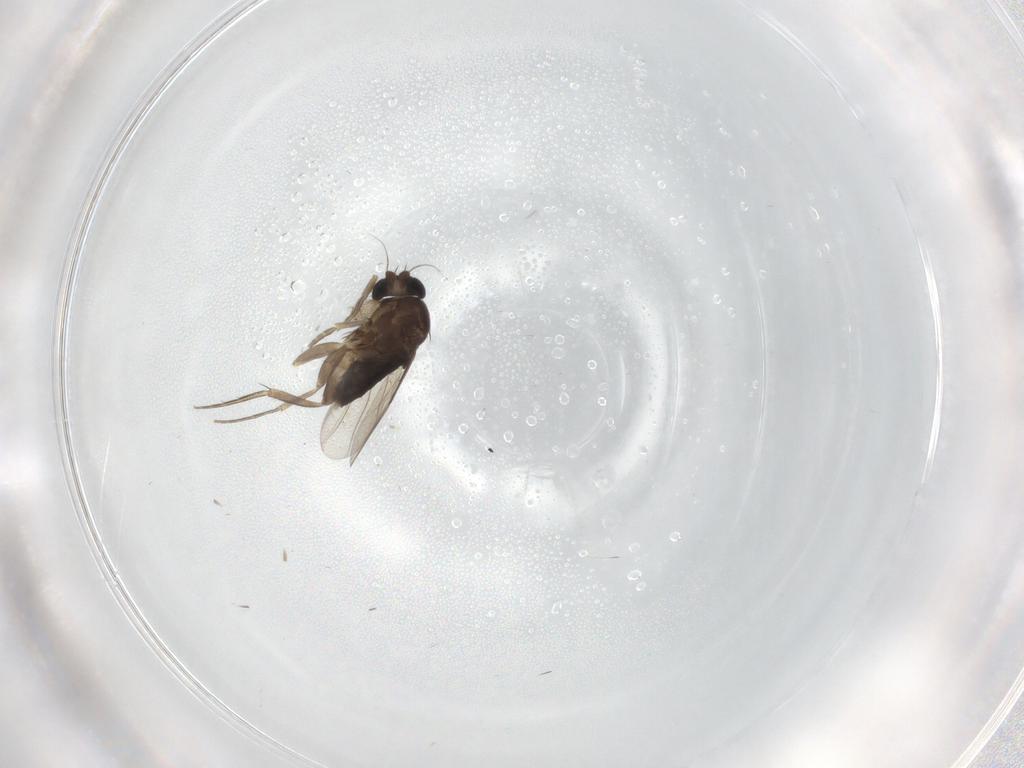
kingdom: Animalia
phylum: Arthropoda
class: Insecta
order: Diptera
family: Phoridae
